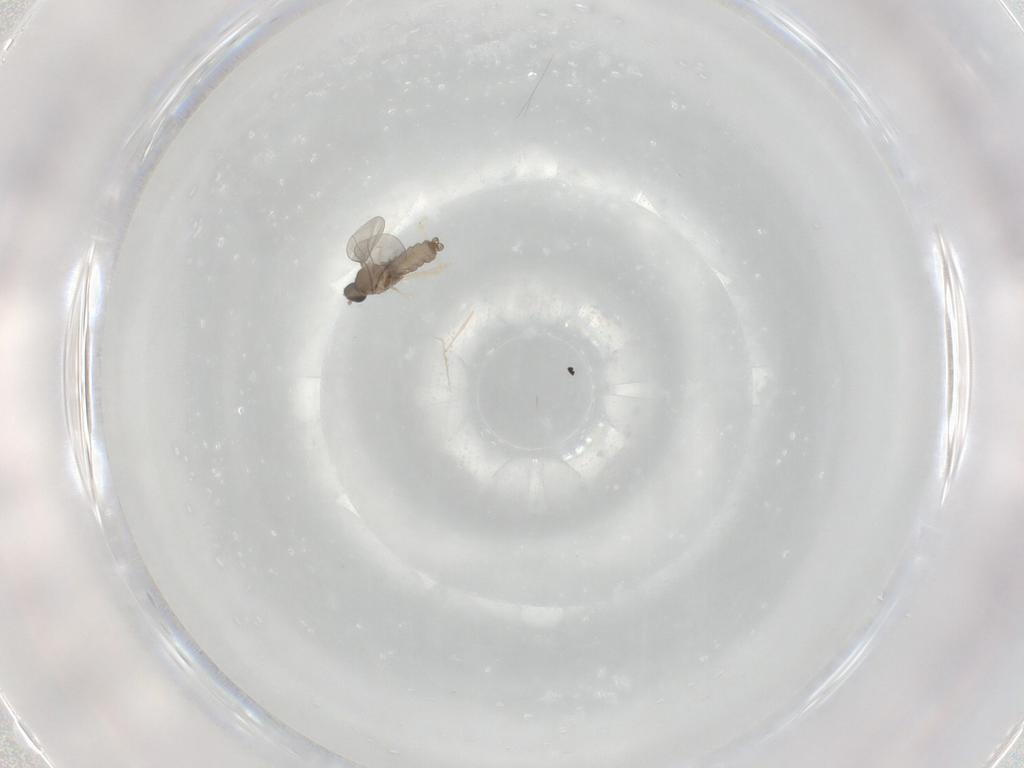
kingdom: Animalia
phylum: Arthropoda
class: Insecta
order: Diptera
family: Ceratopogonidae
